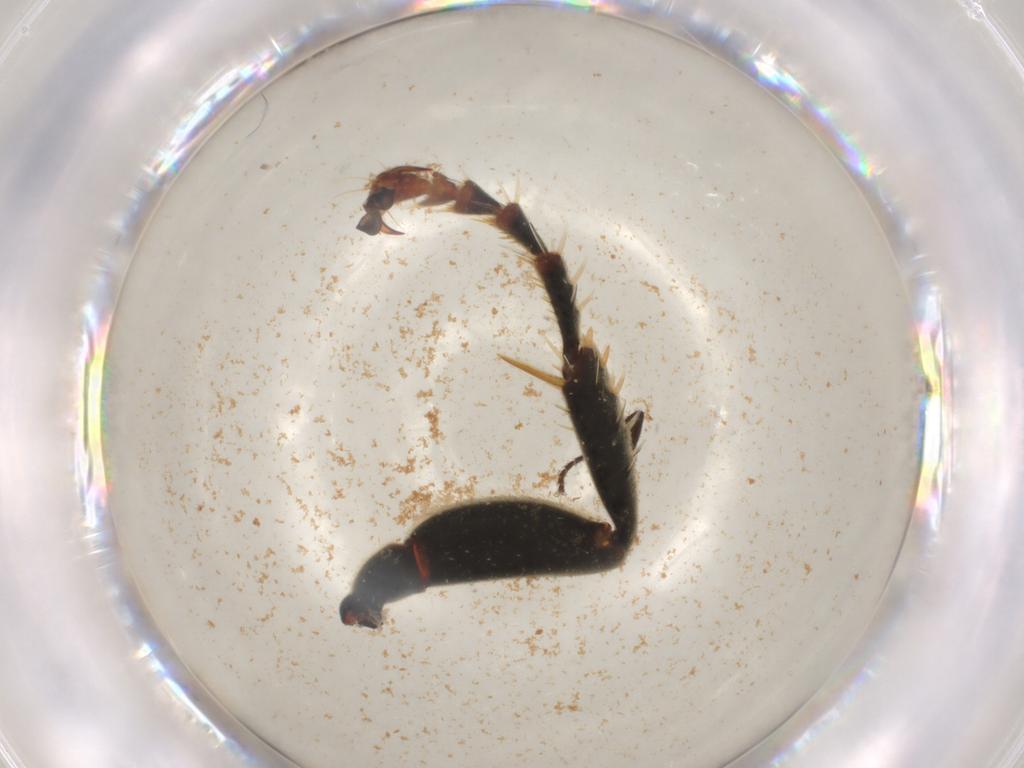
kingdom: Animalia
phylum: Arthropoda
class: Insecta
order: Hymenoptera
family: Crabronidae
